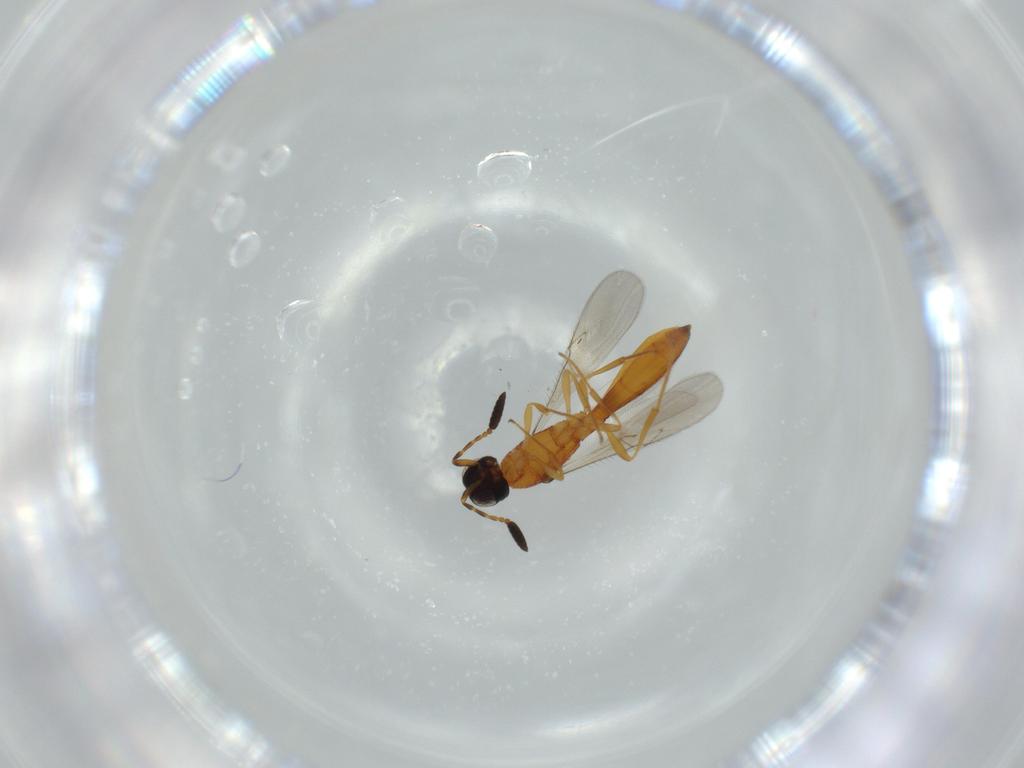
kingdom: Animalia
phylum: Arthropoda
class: Insecta
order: Hymenoptera
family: Scelionidae
